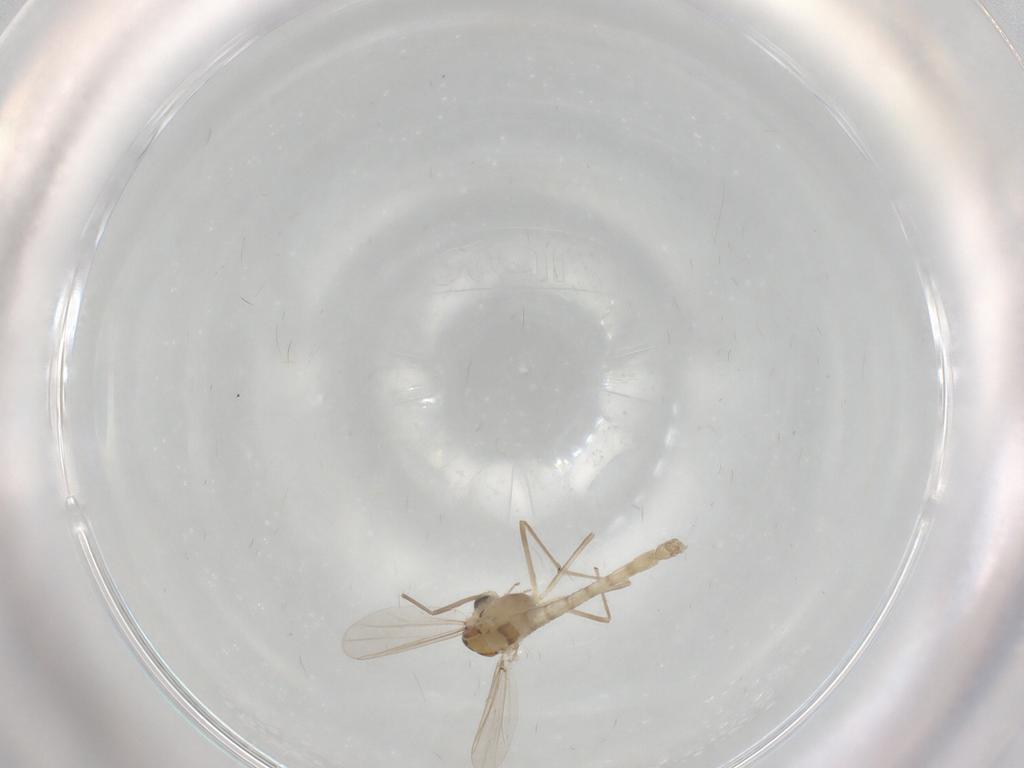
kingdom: Animalia
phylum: Arthropoda
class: Insecta
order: Diptera
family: Chironomidae
